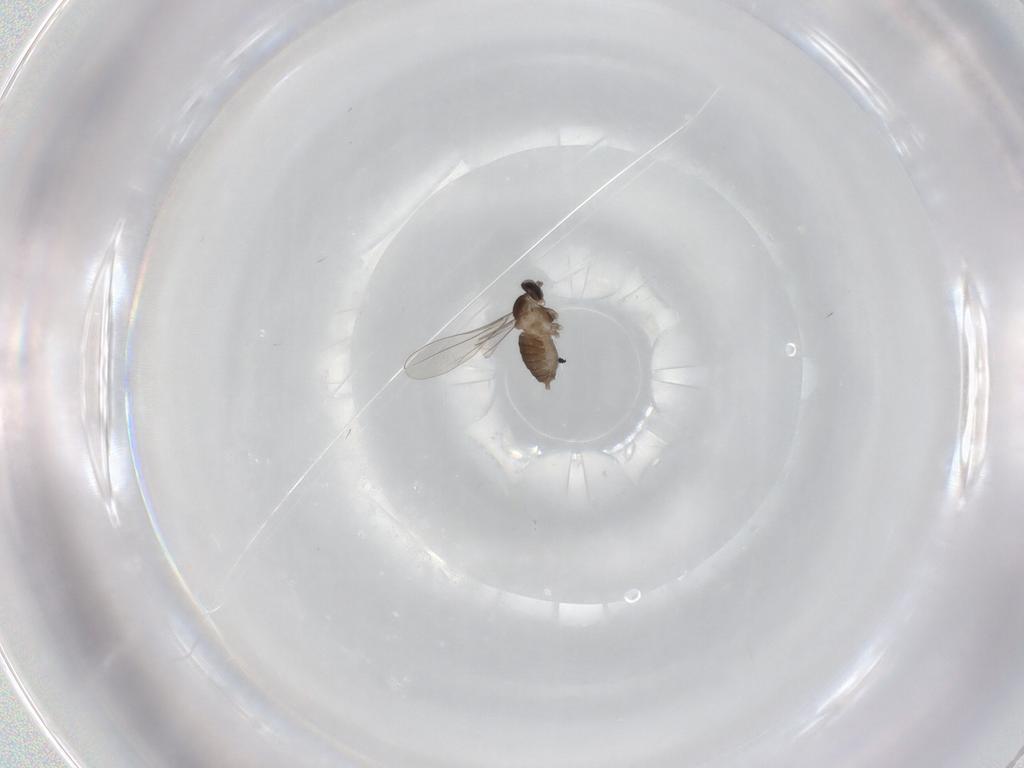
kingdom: Animalia
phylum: Arthropoda
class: Insecta
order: Diptera
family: Cecidomyiidae
